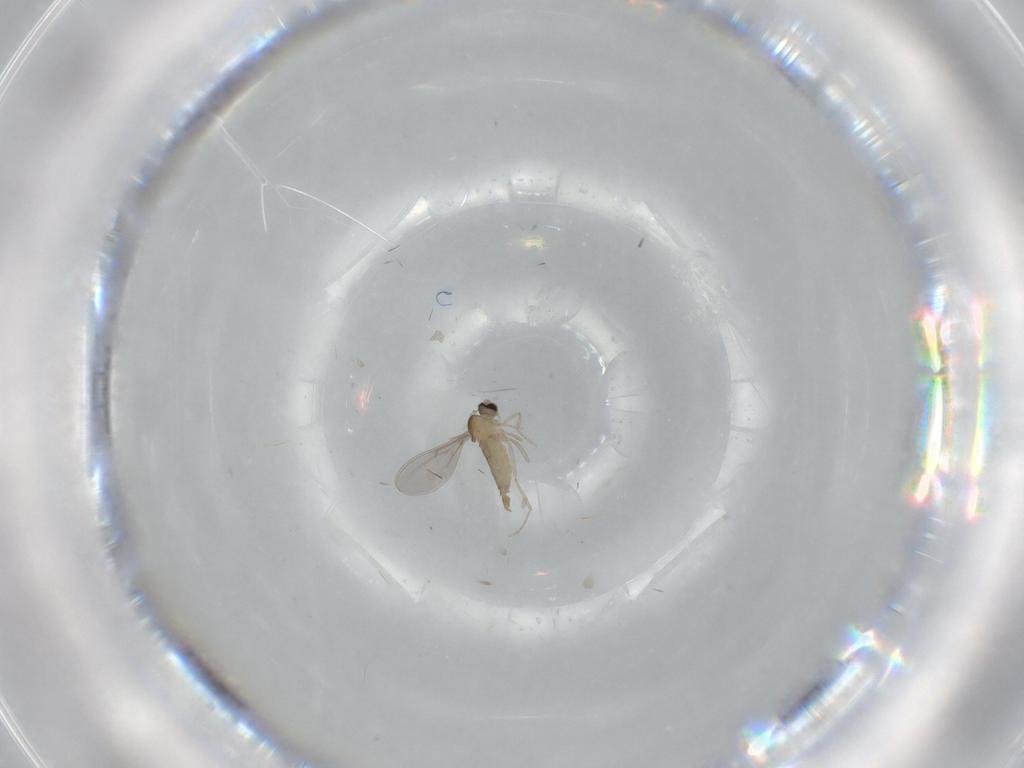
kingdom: Animalia
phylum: Arthropoda
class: Insecta
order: Diptera
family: Cecidomyiidae
